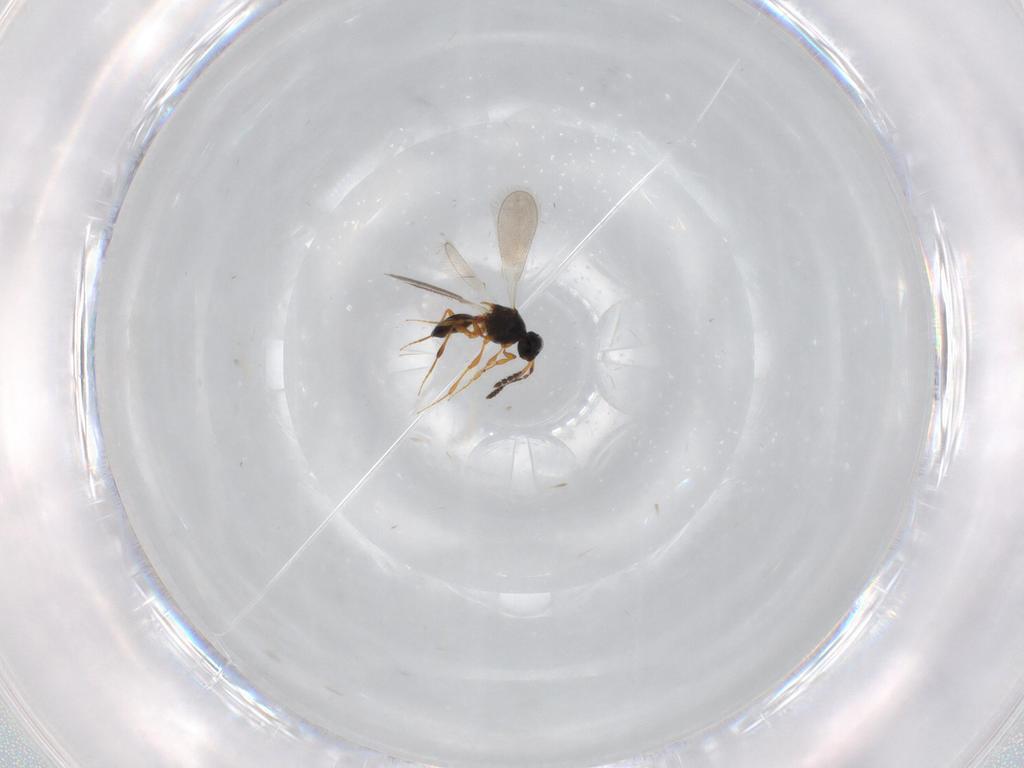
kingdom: Animalia
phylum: Arthropoda
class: Insecta
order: Hymenoptera
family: Platygastridae
